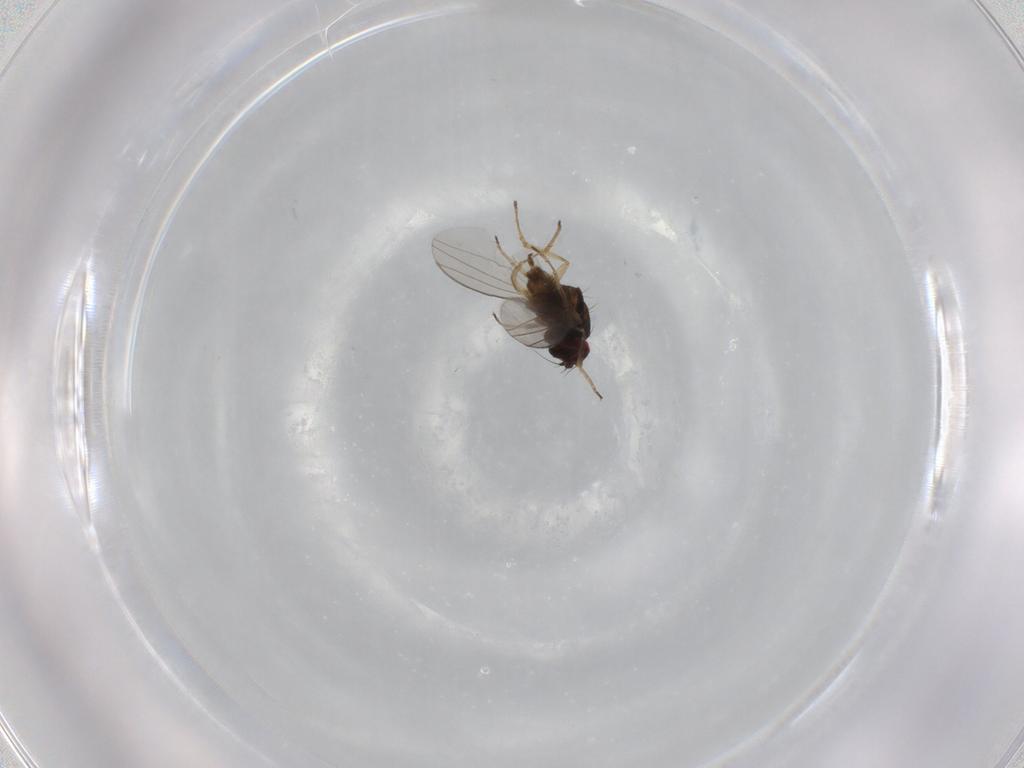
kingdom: Animalia
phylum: Arthropoda
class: Insecta
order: Diptera
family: Dolichopodidae
